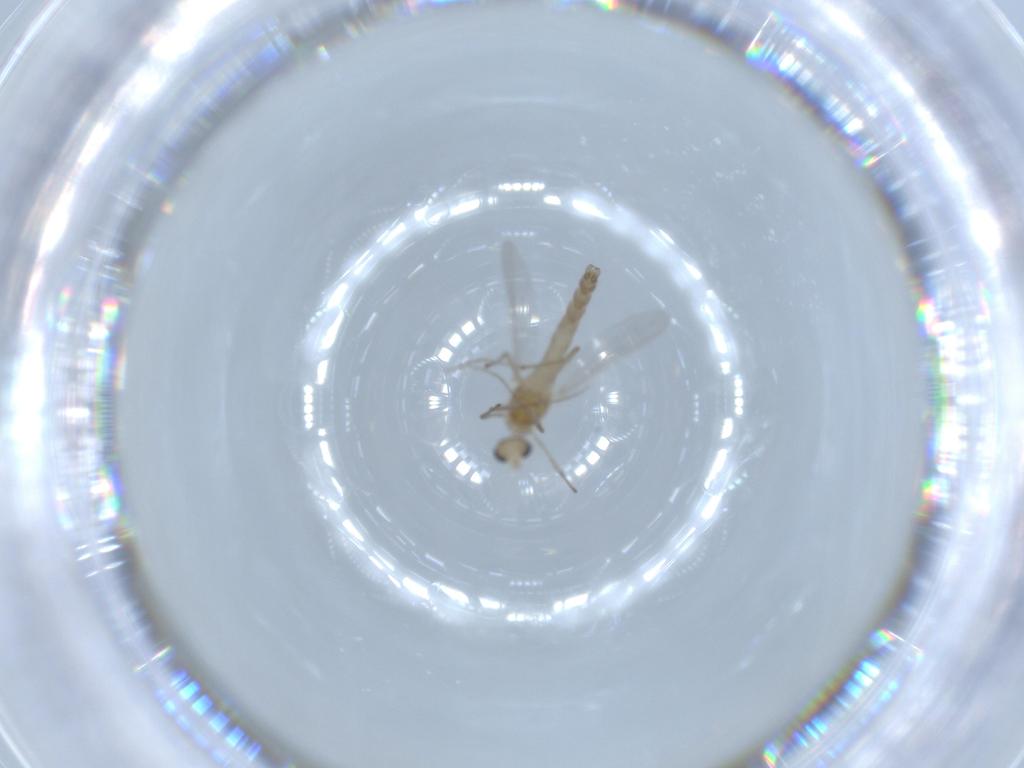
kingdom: Animalia
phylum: Arthropoda
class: Insecta
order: Diptera
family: Chironomidae
